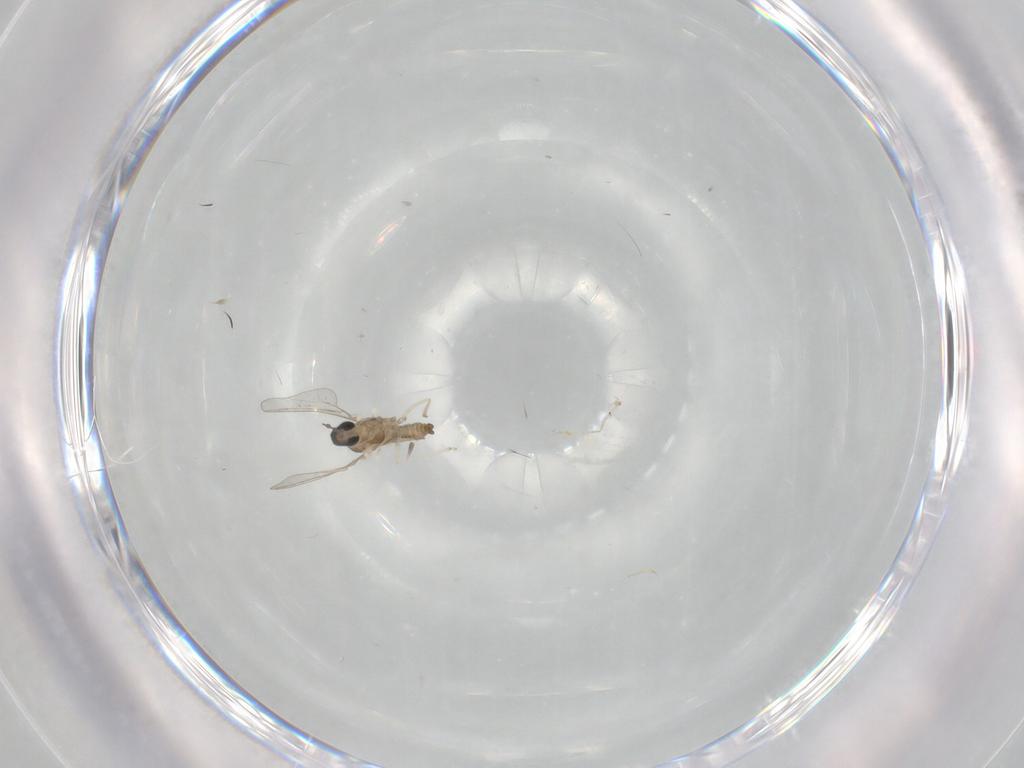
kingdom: Animalia
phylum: Arthropoda
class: Insecta
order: Diptera
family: Cecidomyiidae
